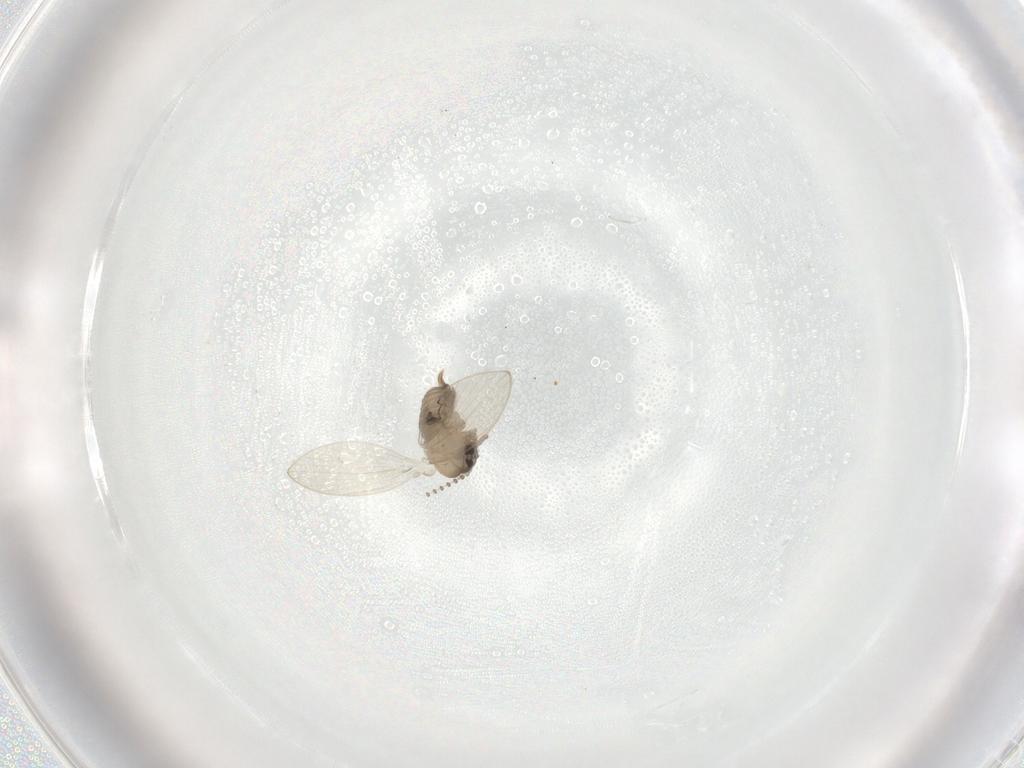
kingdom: Animalia
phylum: Arthropoda
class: Insecta
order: Diptera
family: Psychodidae
